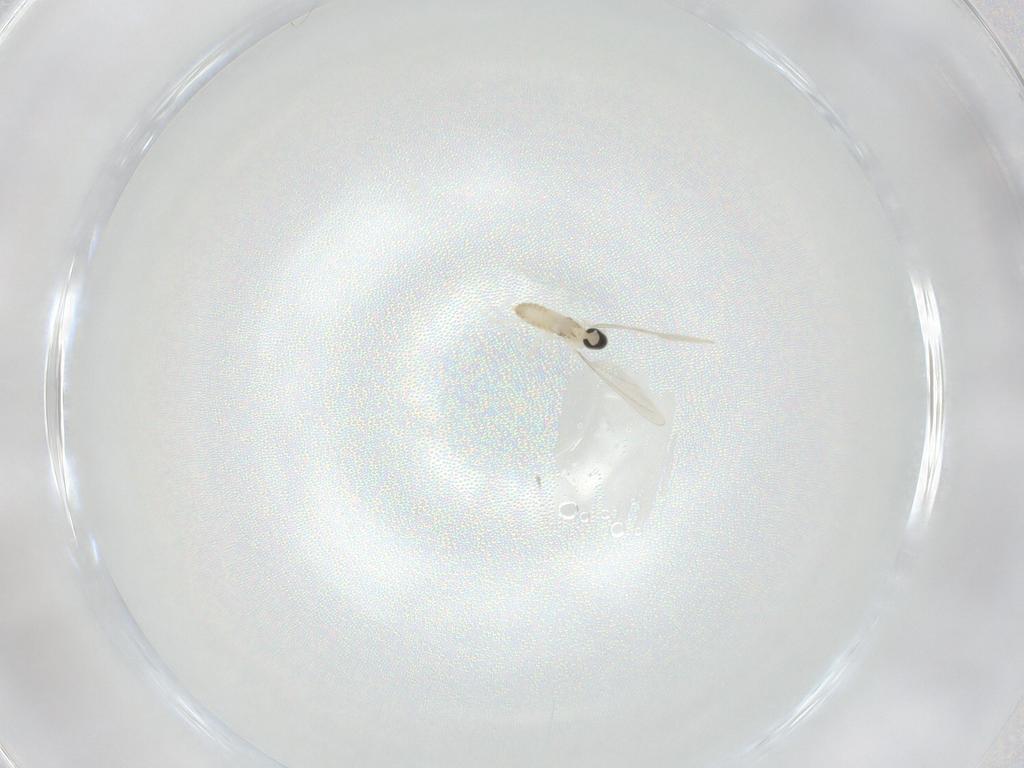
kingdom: Animalia
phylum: Arthropoda
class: Insecta
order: Diptera
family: Cecidomyiidae
